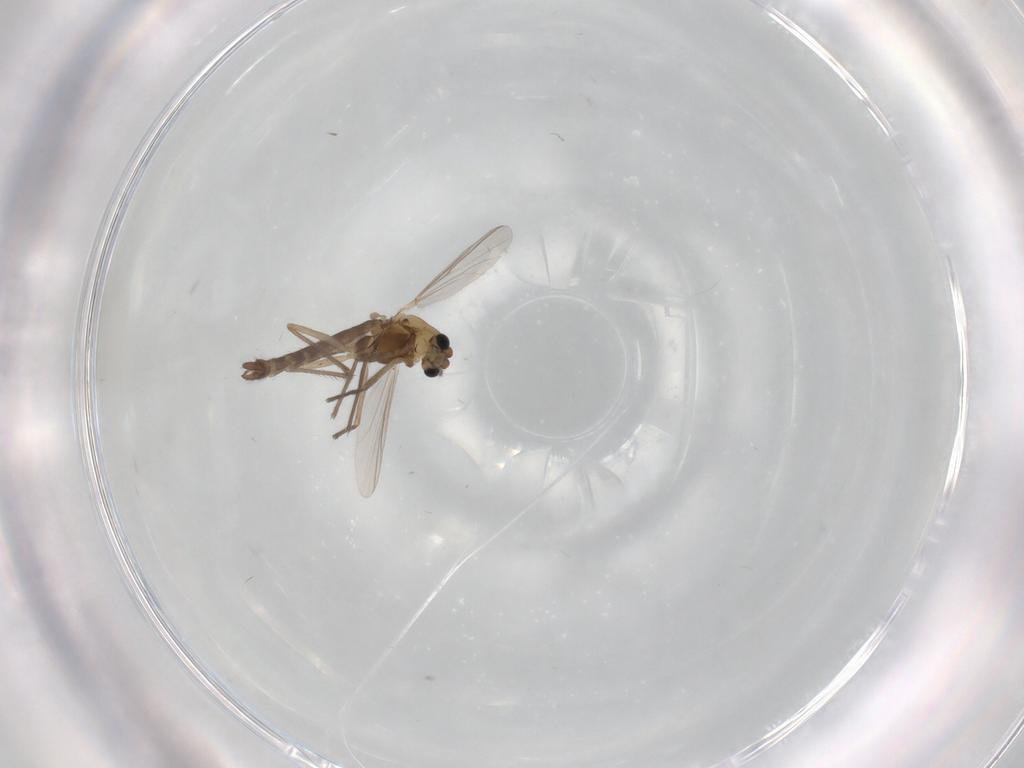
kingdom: Animalia
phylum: Arthropoda
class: Insecta
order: Diptera
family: Chironomidae
